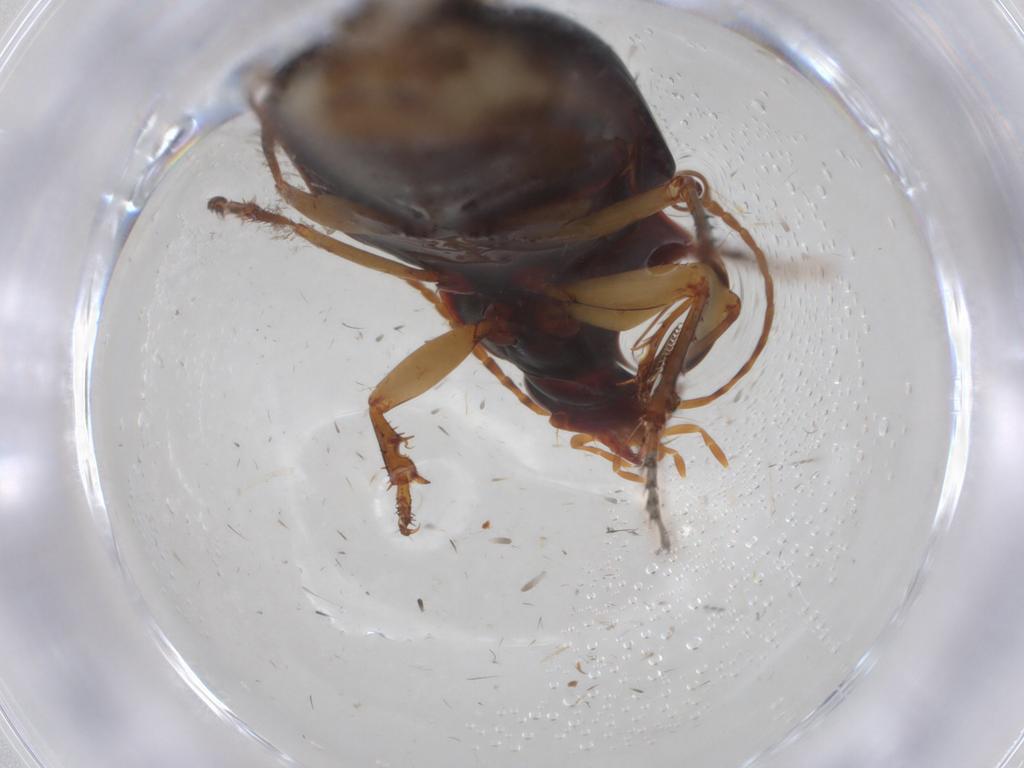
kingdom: Animalia
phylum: Arthropoda
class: Insecta
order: Coleoptera
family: Carabidae
